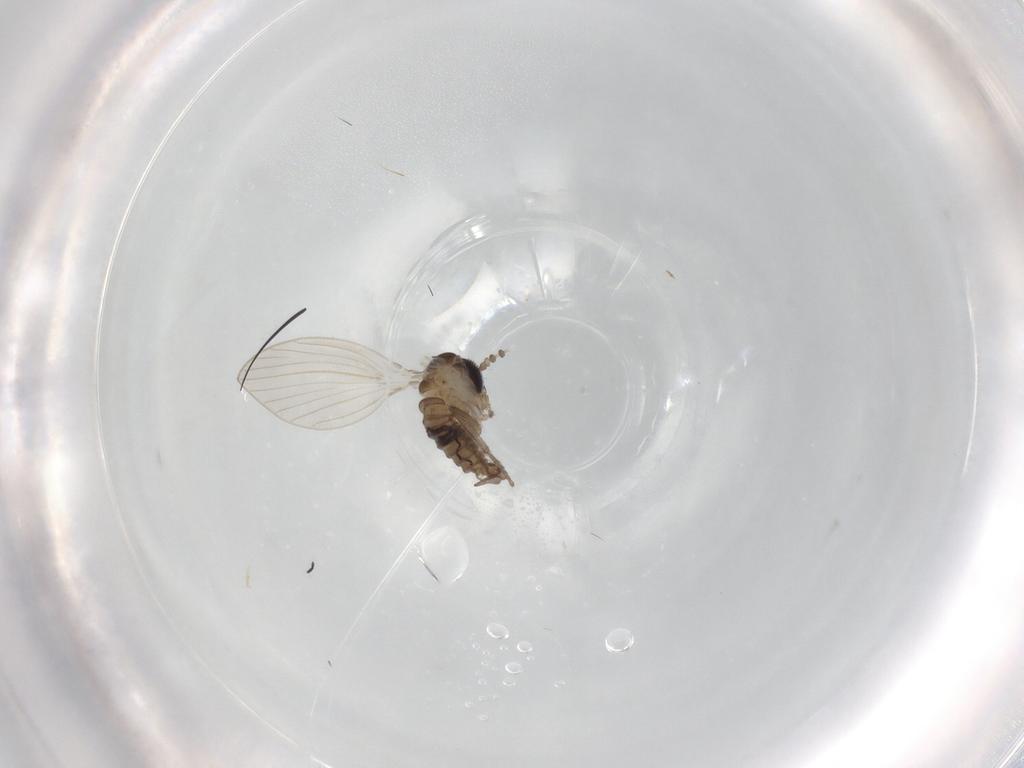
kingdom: Animalia
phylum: Arthropoda
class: Insecta
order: Diptera
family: Psychodidae
